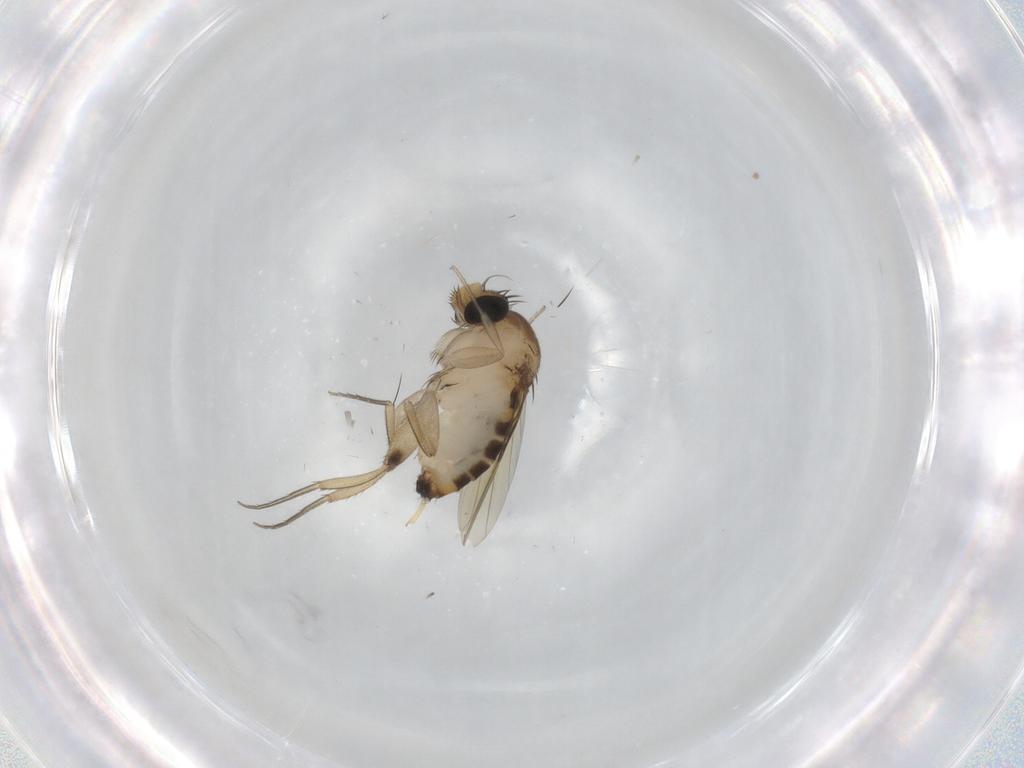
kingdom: Animalia
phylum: Arthropoda
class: Insecta
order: Diptera
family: Phoridae
